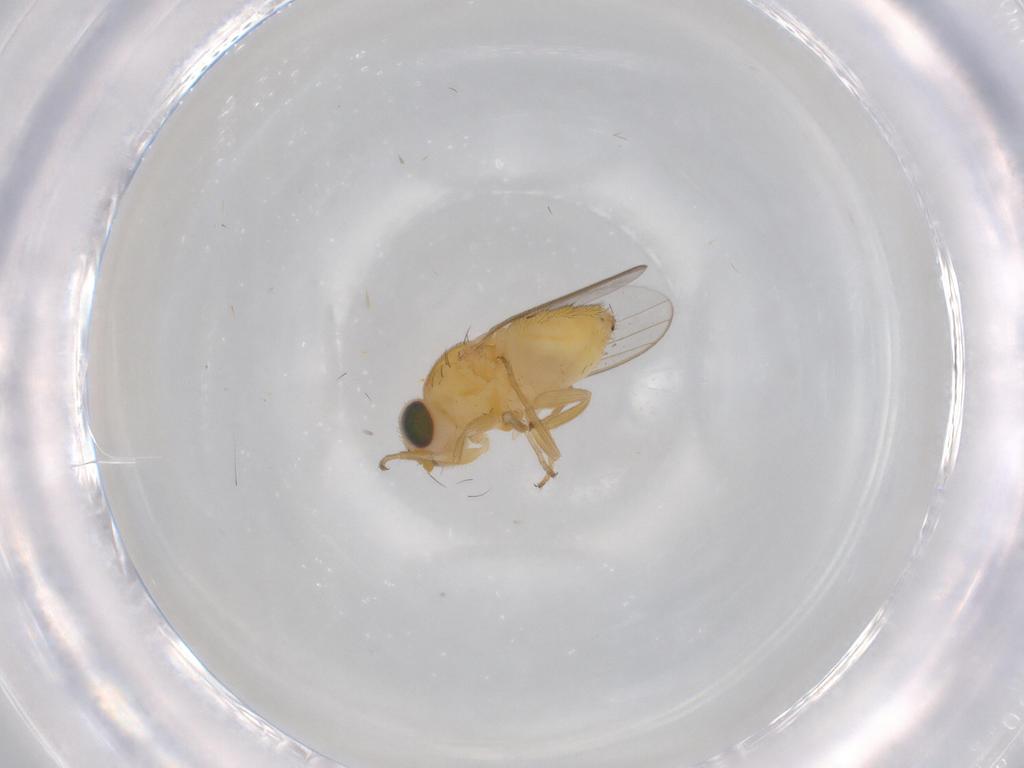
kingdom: Animalia
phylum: Arthropoda
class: Insecta
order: Diptera
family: Chloropidae
